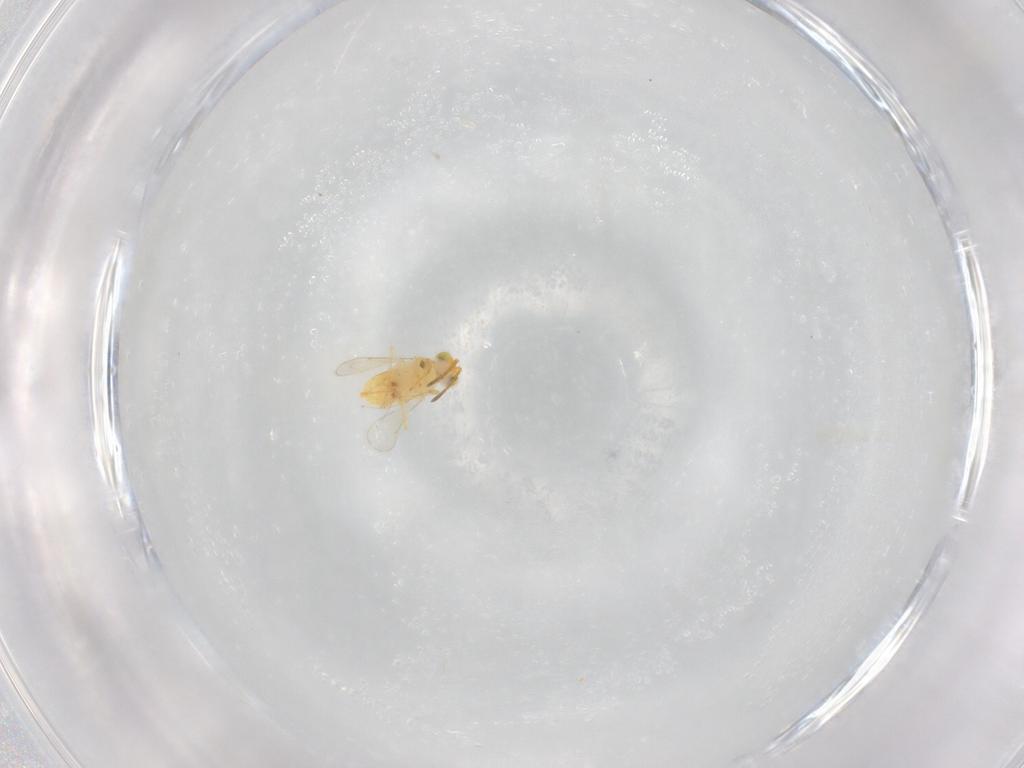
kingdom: Animalia
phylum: Arthropoda
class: Insecta
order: Hymenoptera
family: Aphelinidae
